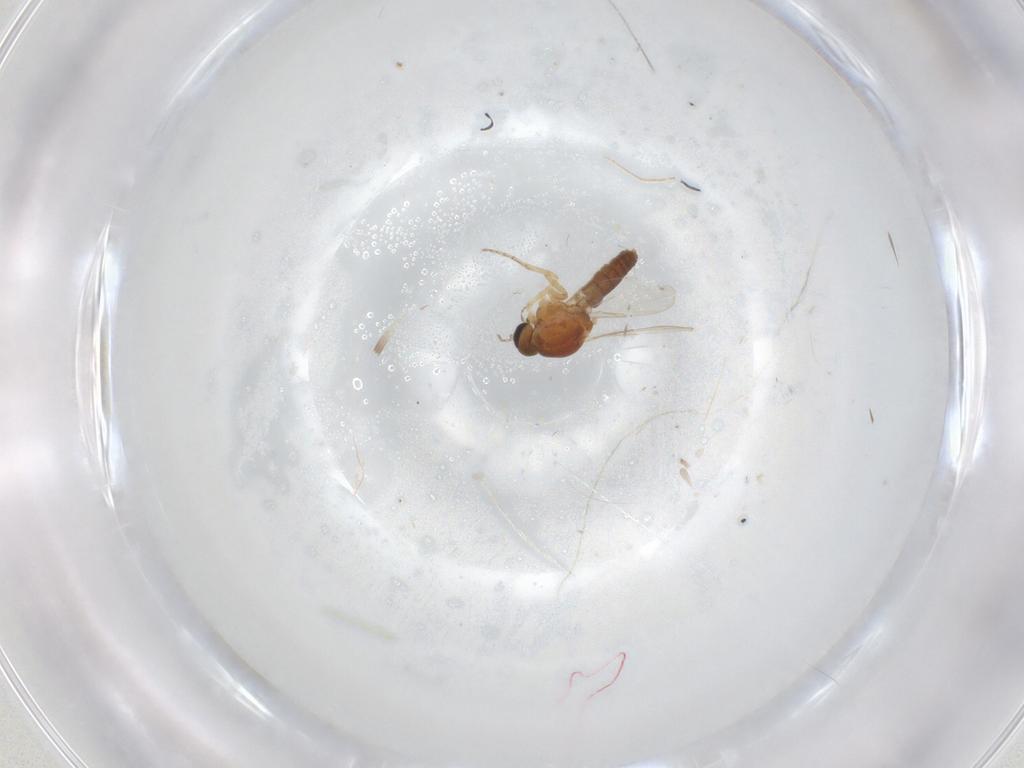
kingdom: Animalia
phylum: Arthropoda
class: Insecta
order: Diptera
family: Ceratopogonidae
